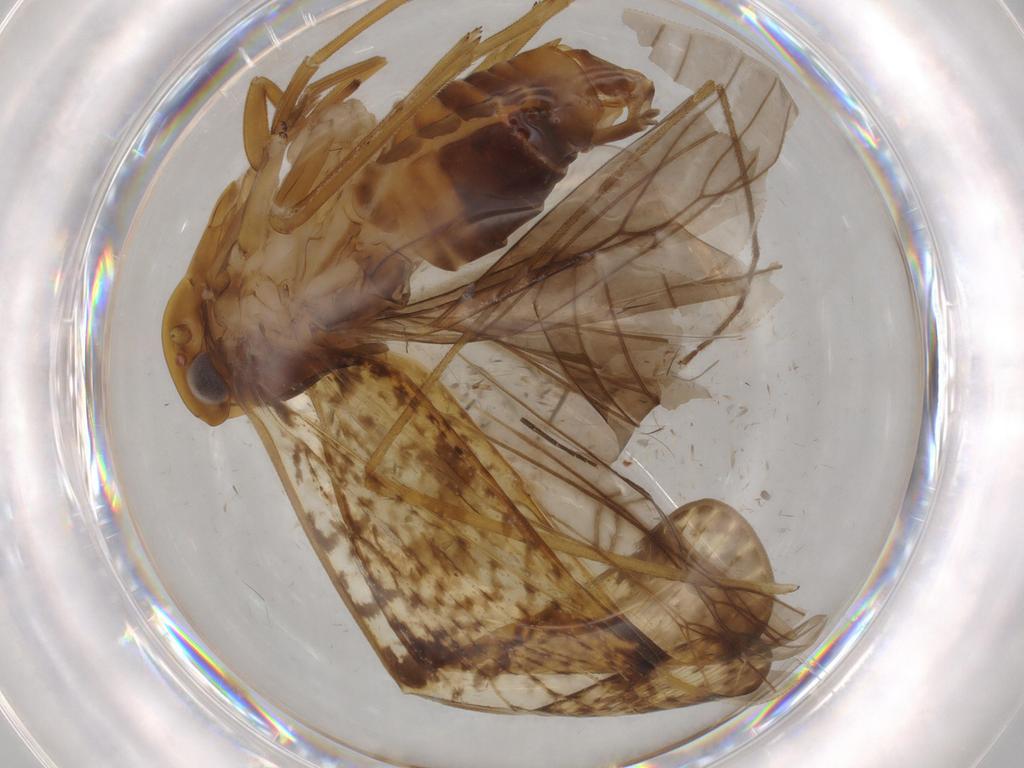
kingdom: Animalia
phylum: Arthropoda
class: Insecta
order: Hemiptera
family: Cixiidae
